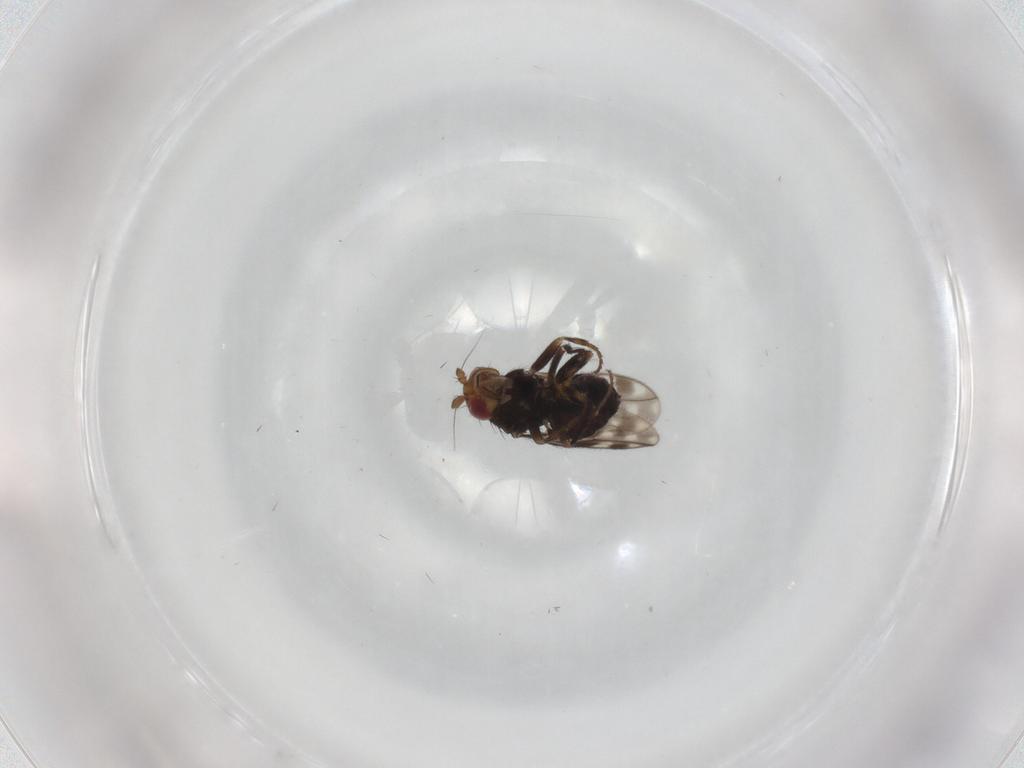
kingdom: Animalia
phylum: Arthropoda
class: Insecta
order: Diptera
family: Sphaeroceridae
